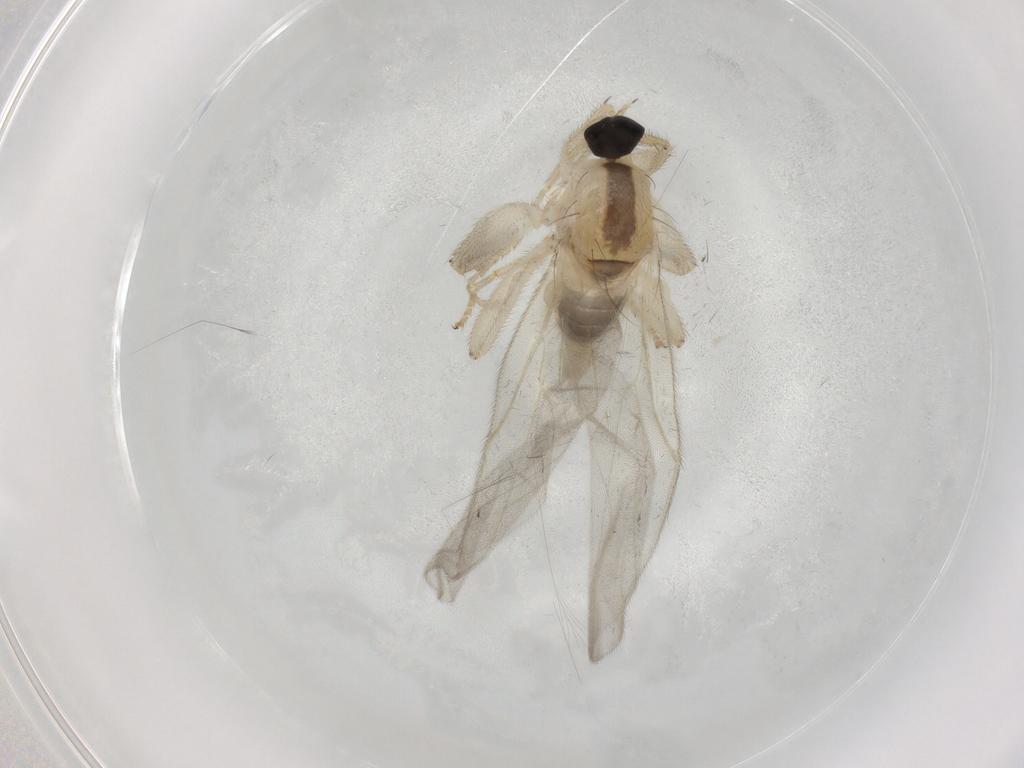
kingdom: Animalia
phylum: Arthropoda
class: Insecta
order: Diptera
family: Hybotidae
